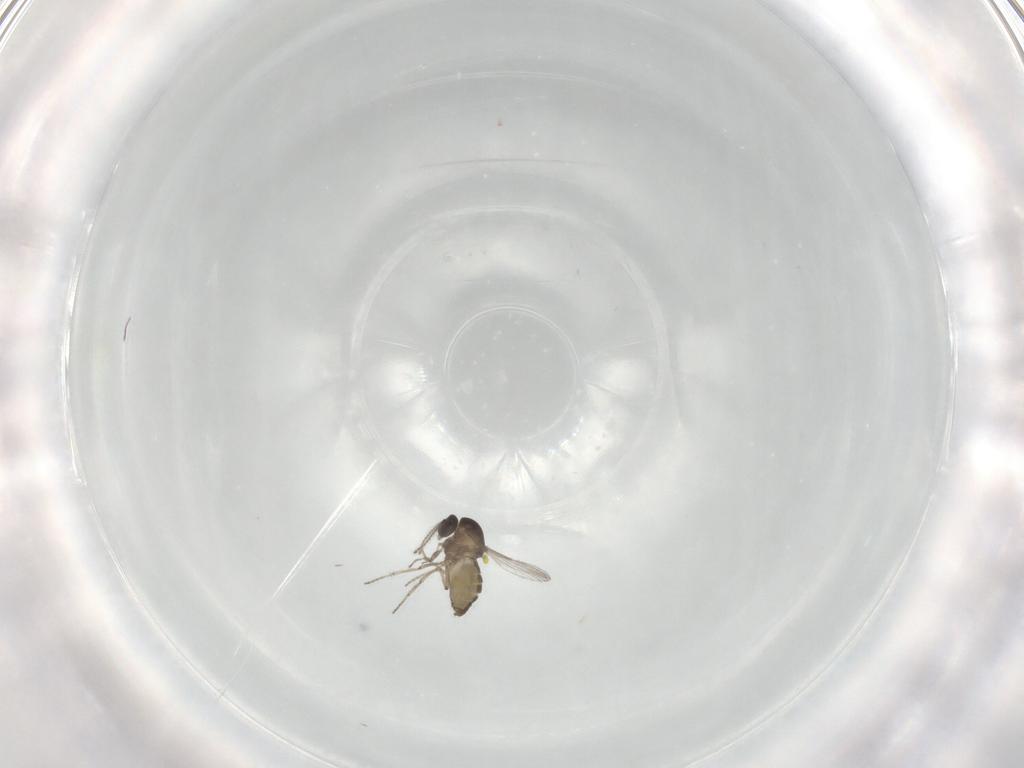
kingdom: Animalia
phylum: Arthropoda
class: Insecta
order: Diptera
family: Ceratopogonidae
